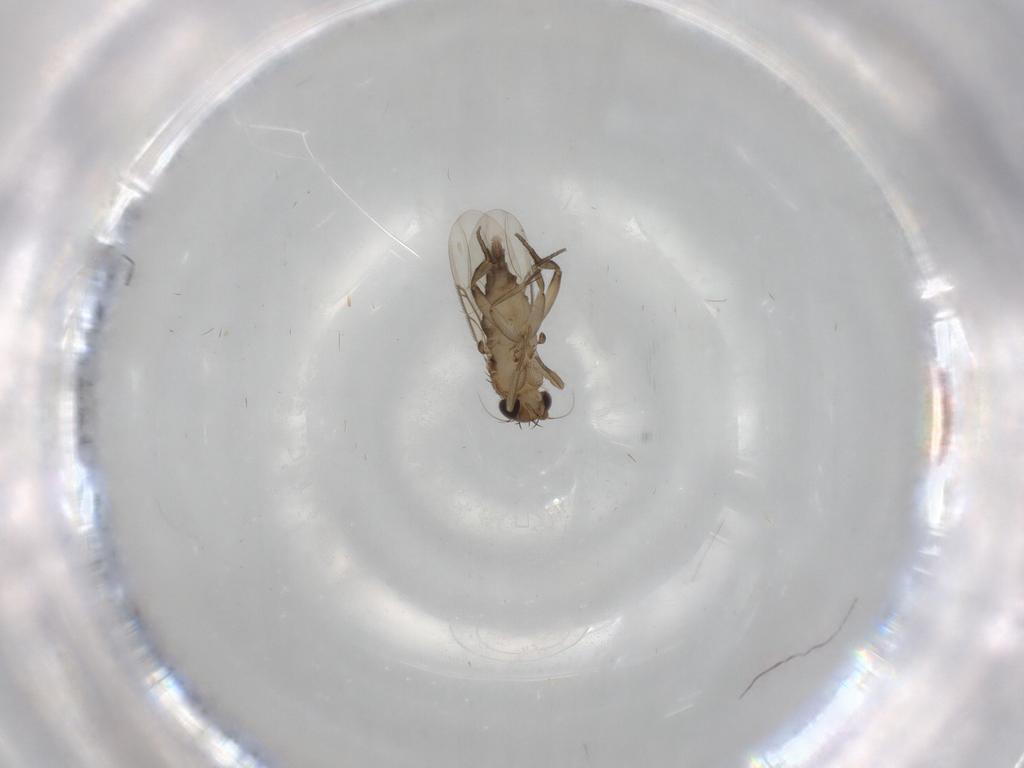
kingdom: Animalia
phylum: Arthropoda
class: Insecta
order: Diptera
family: Phoridae
